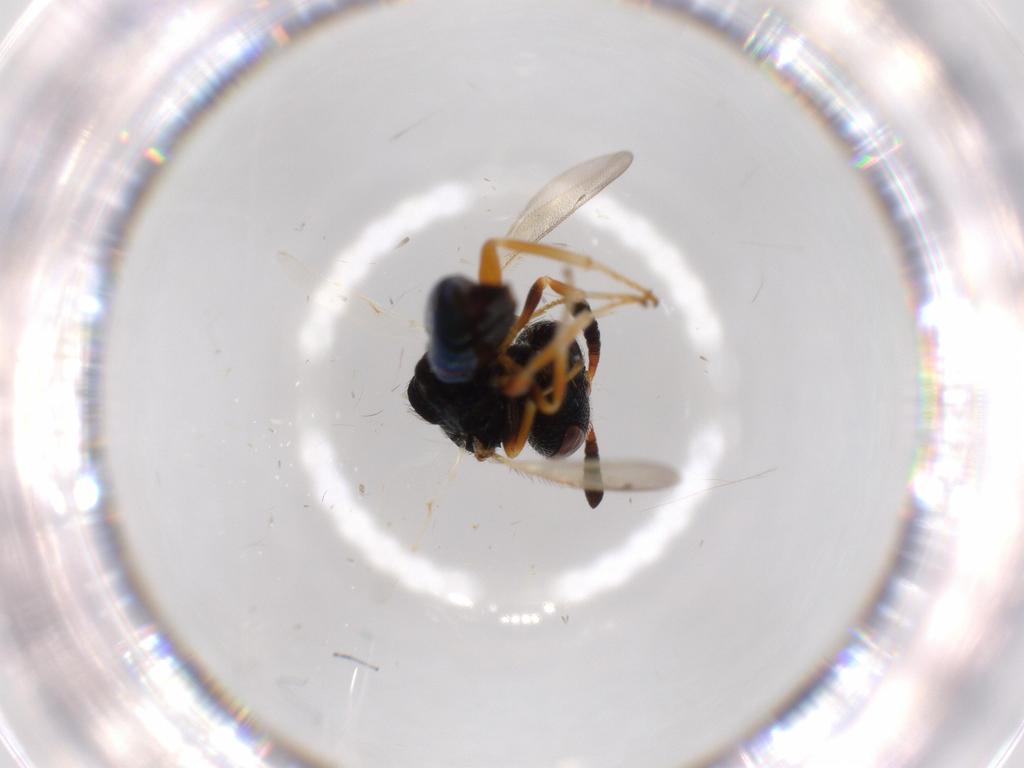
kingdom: Animalia
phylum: Arthropoda
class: Insecta
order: Hymenoptera
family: Agaonidae
